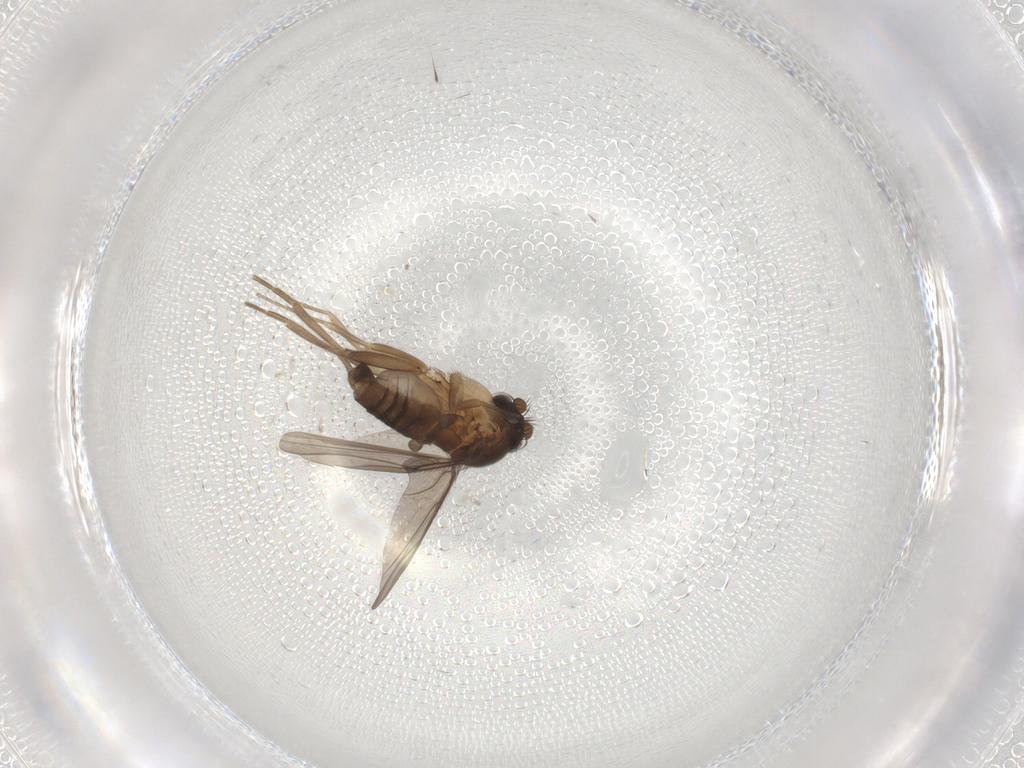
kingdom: Animalia
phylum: Arthropoda
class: Insecta
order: Diptera
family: Phoridae
